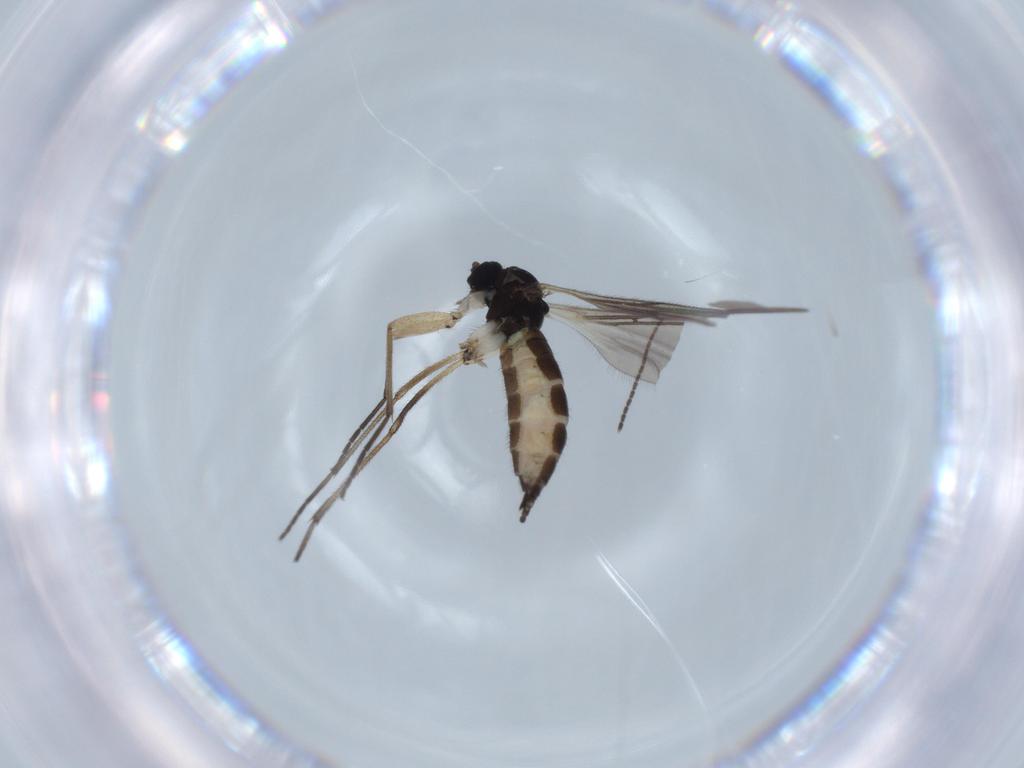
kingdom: Animalia
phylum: Arthropoda
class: Insecta
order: Diptera
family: Sciaridae
